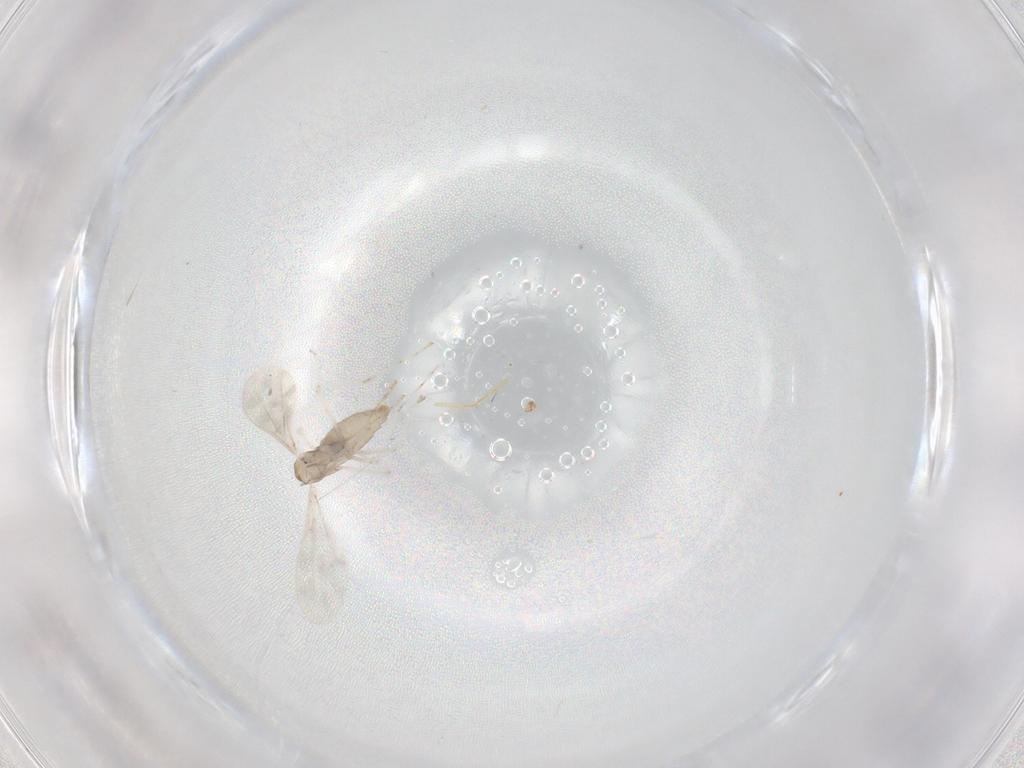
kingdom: Animalia
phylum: Arthropoda
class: Insecta
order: Diptera
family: Cecidomyiidae
